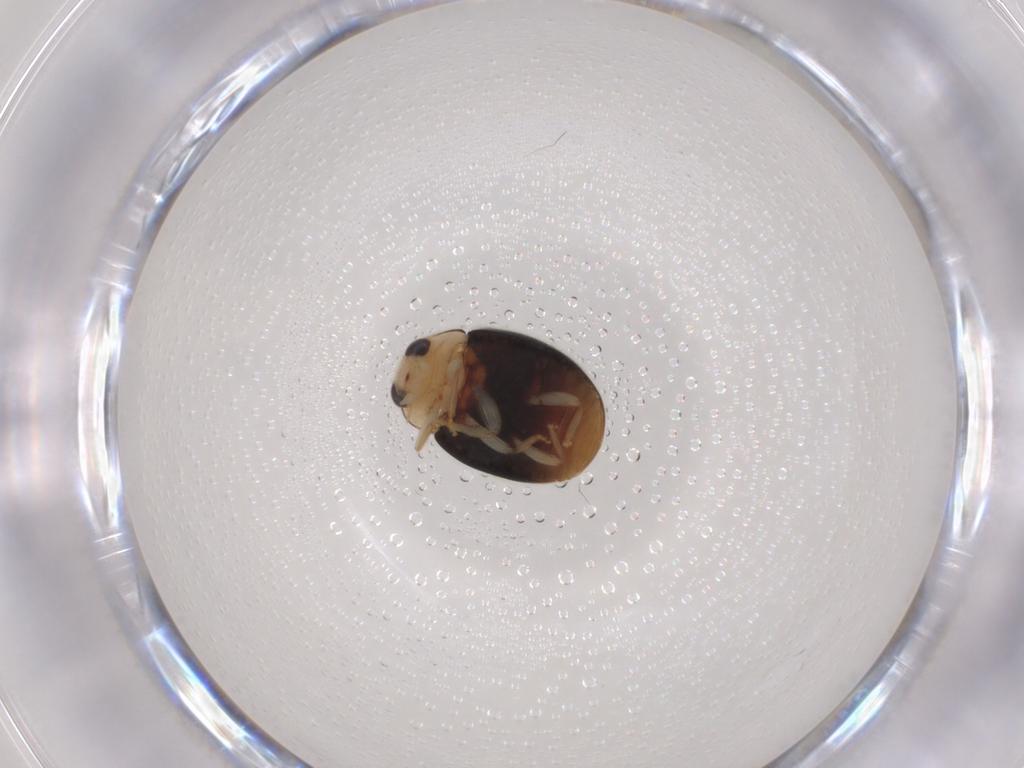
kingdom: Animalia
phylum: Arthropoda
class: Insecta
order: Coleoptera
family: Coccinellidae
